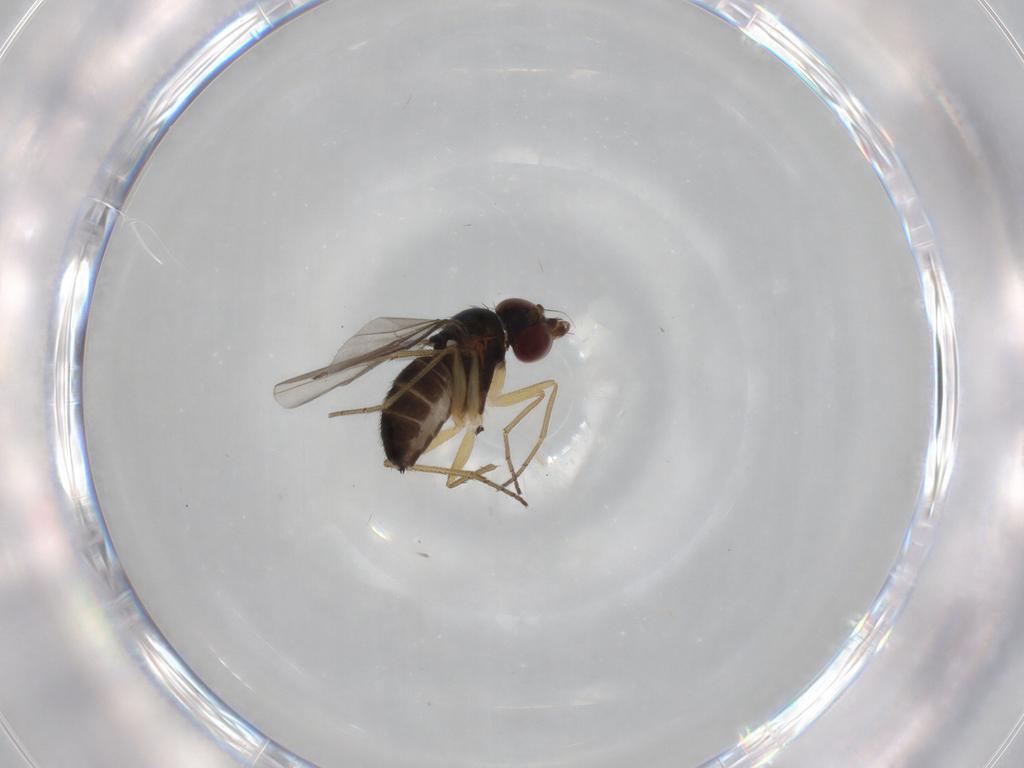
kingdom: Animalia
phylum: Arthropoda
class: Insecta
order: Diptera
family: Dolichopodidae
